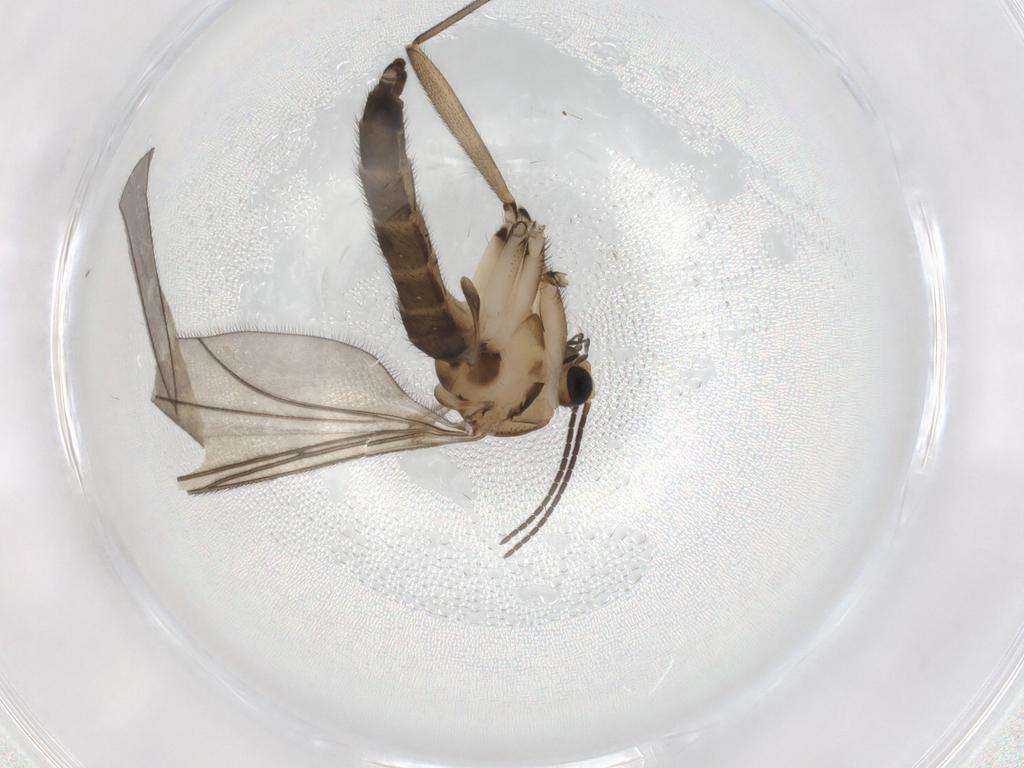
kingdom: Animalia
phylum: Arthropoda
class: Insecta
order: Diptera
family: Sciaridae
